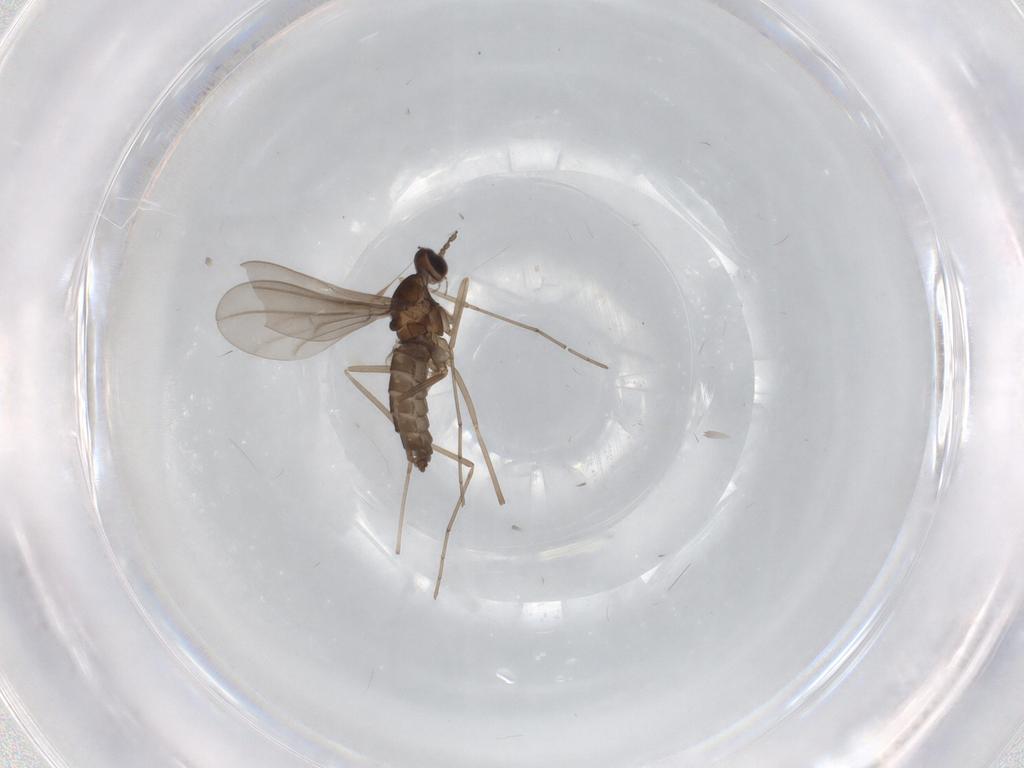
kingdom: Animalia
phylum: Arthropoda
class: Insecta
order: Diptera
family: Cecidomyiidae
